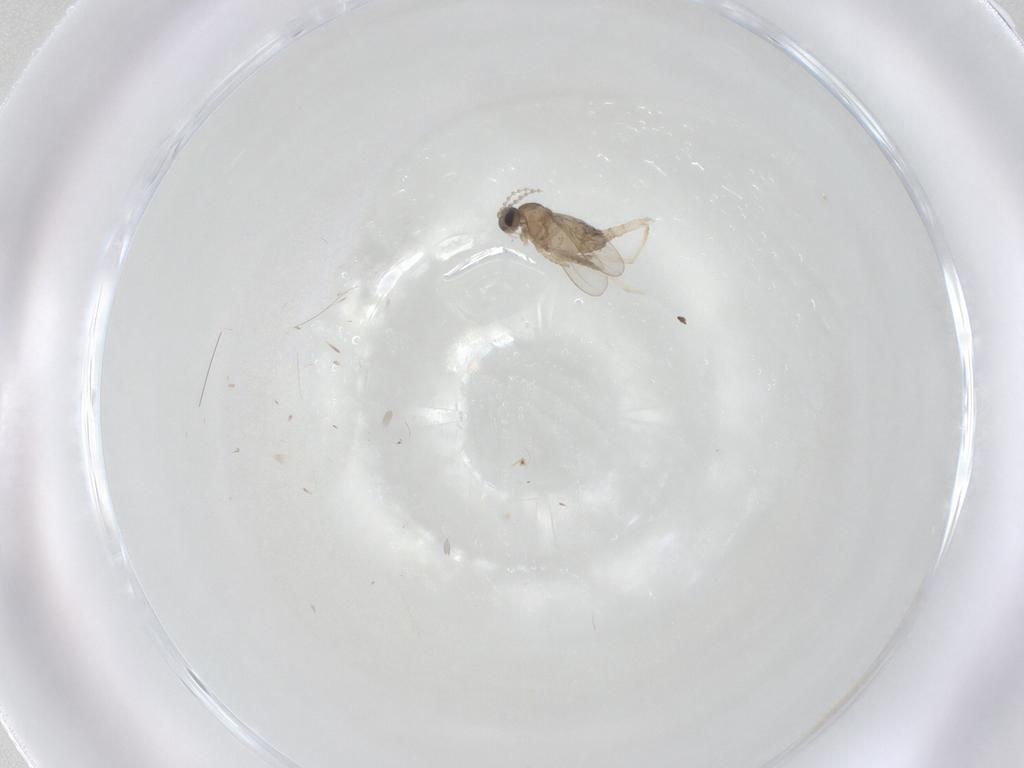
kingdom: Animalia
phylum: Arthropoda
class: Insecta
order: Diptera
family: Cecidomyiidae
